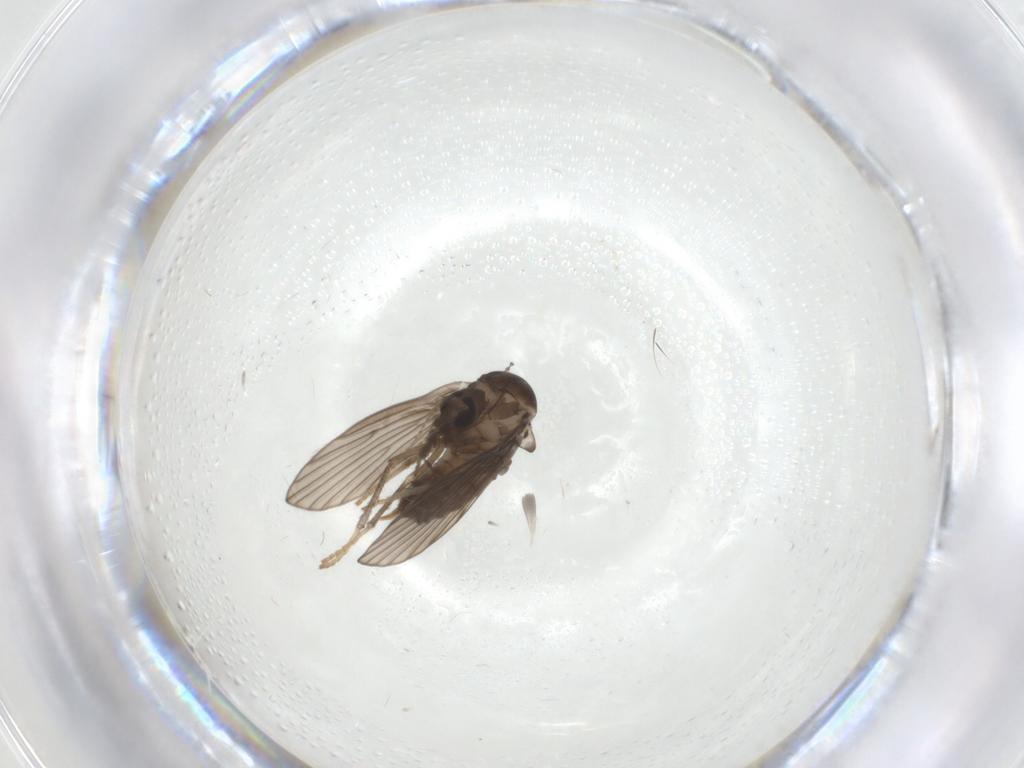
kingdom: Animalia
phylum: Arthropoda
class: Insecta
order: Diptera
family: Psychodidae
